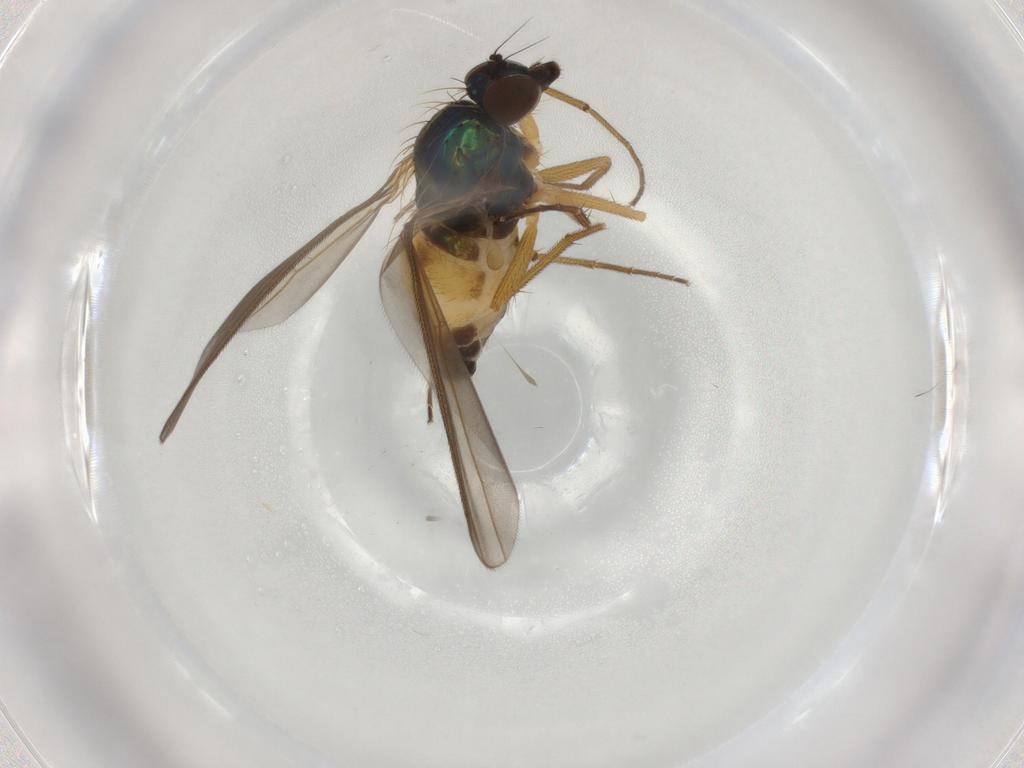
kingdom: Animalia
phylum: Arthropoda
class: Insecta
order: Diptera
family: Dolichopodidae
